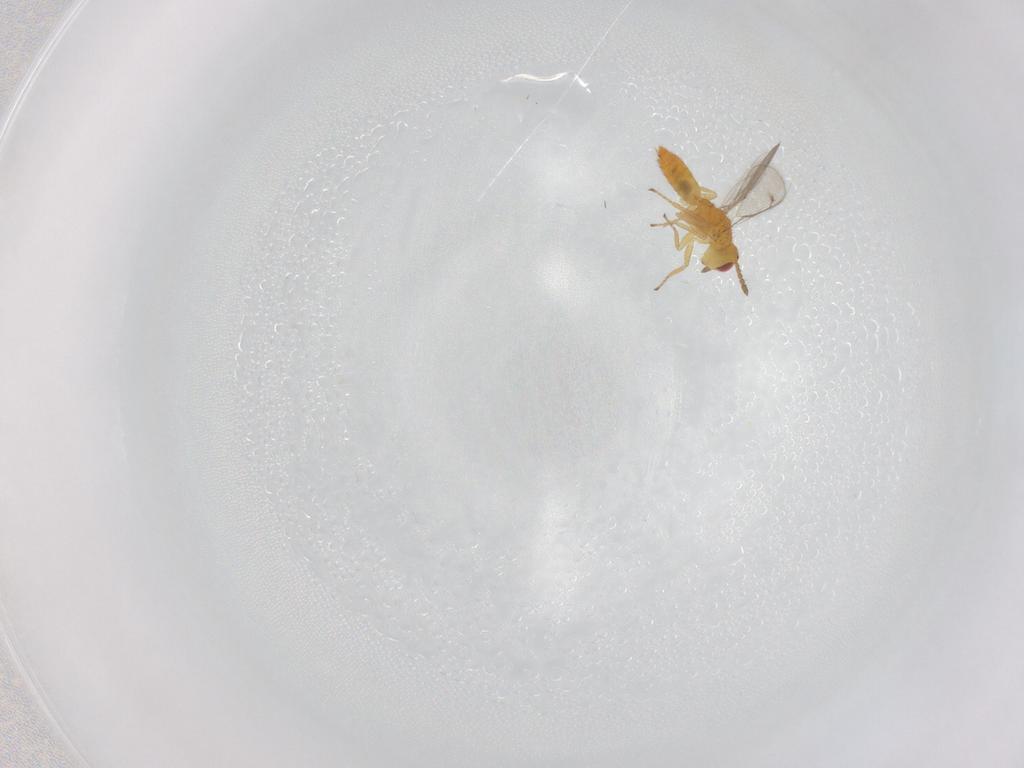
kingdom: Animalia
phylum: Arthropoda
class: Insecta
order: Hymenoptera
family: Eulophidae
